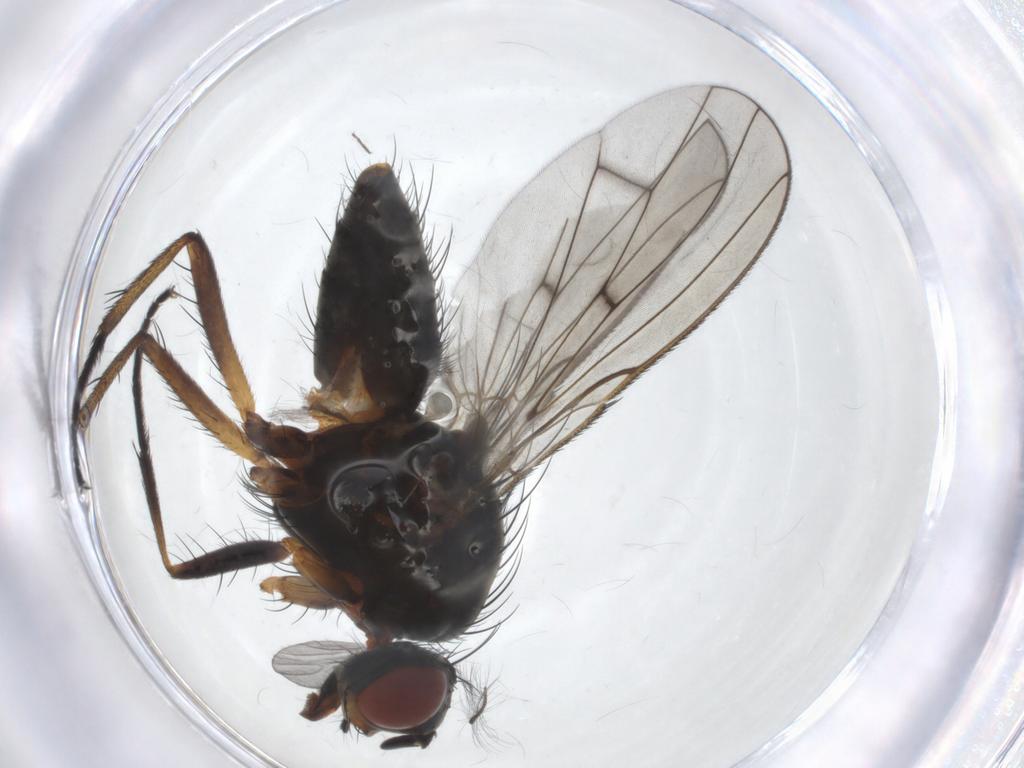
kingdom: Animalia
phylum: Arthropoda
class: Insecta
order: Diptera
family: Anthomyiidae
